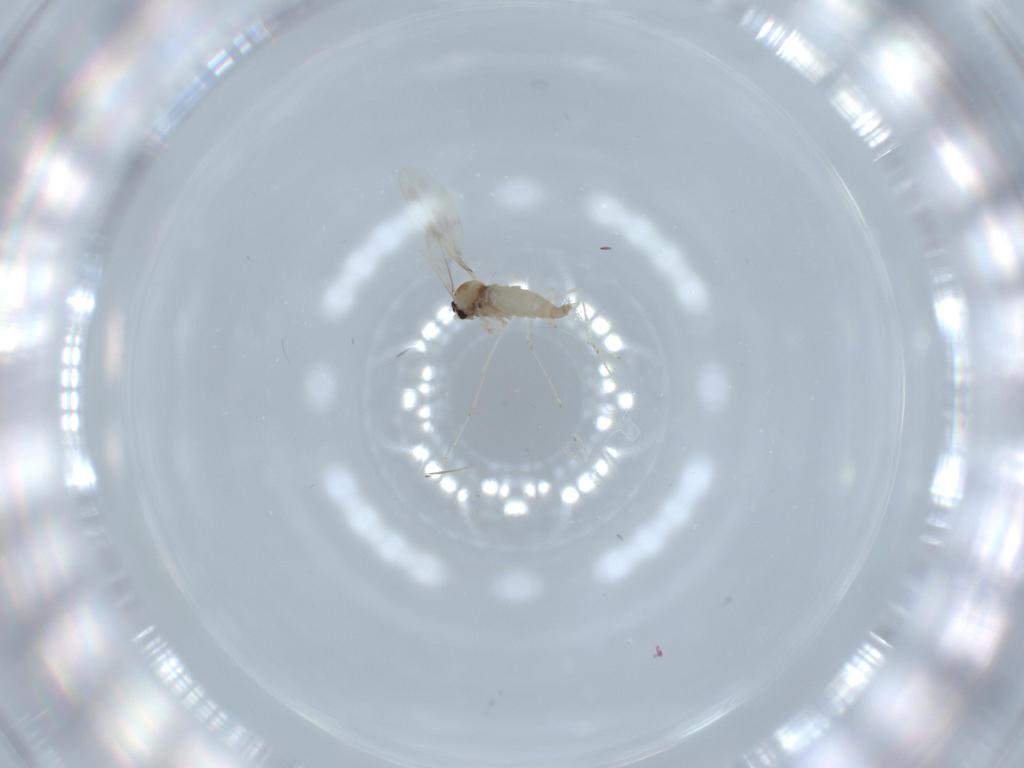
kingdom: Animalia
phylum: Arthropoda
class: Insecta
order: Diptera
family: Cecidomyiidae
